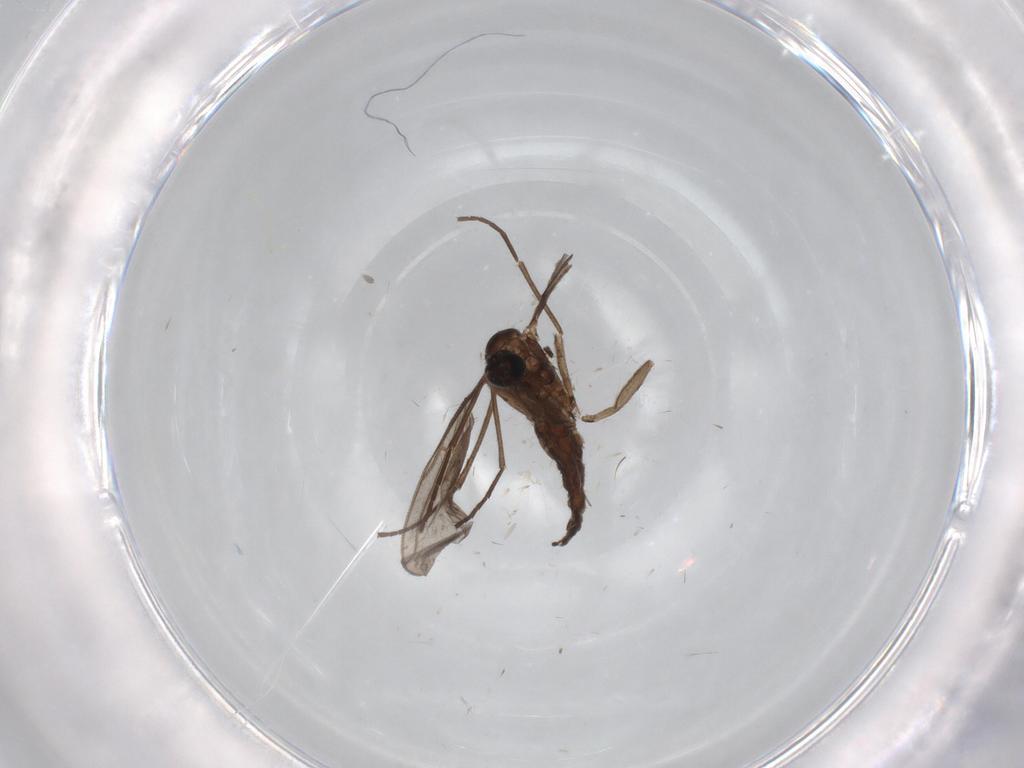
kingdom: Animalia
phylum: Arthropoda
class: Insecta
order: Diptera
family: Cecidomyiidae
